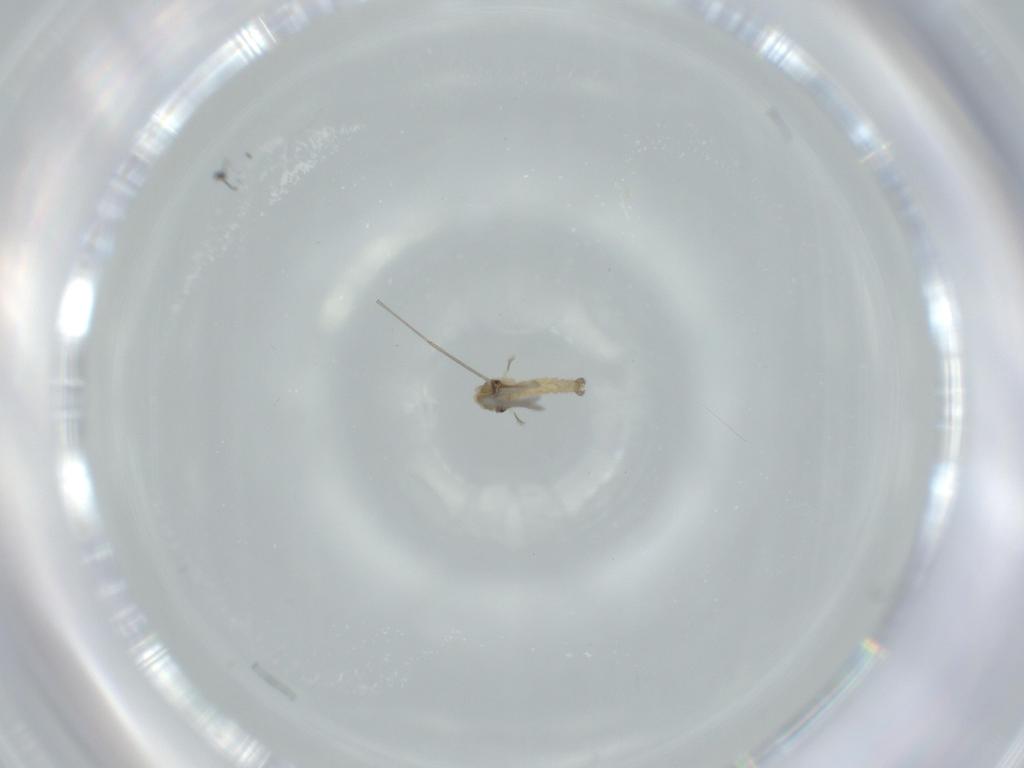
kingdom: Animalia
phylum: Arthropoda
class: Insecta
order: Diptera
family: Cecidomyiidae
